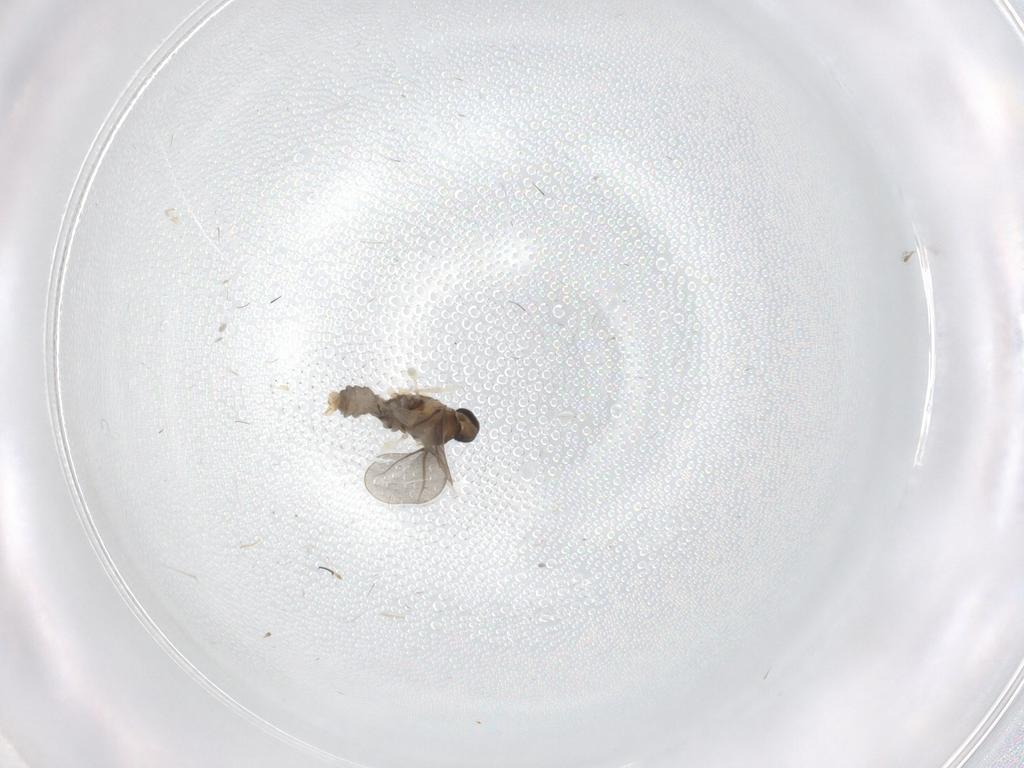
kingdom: Animalia
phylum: Arthropoda
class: Insecta
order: Diptera
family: Cecidomyiidae
